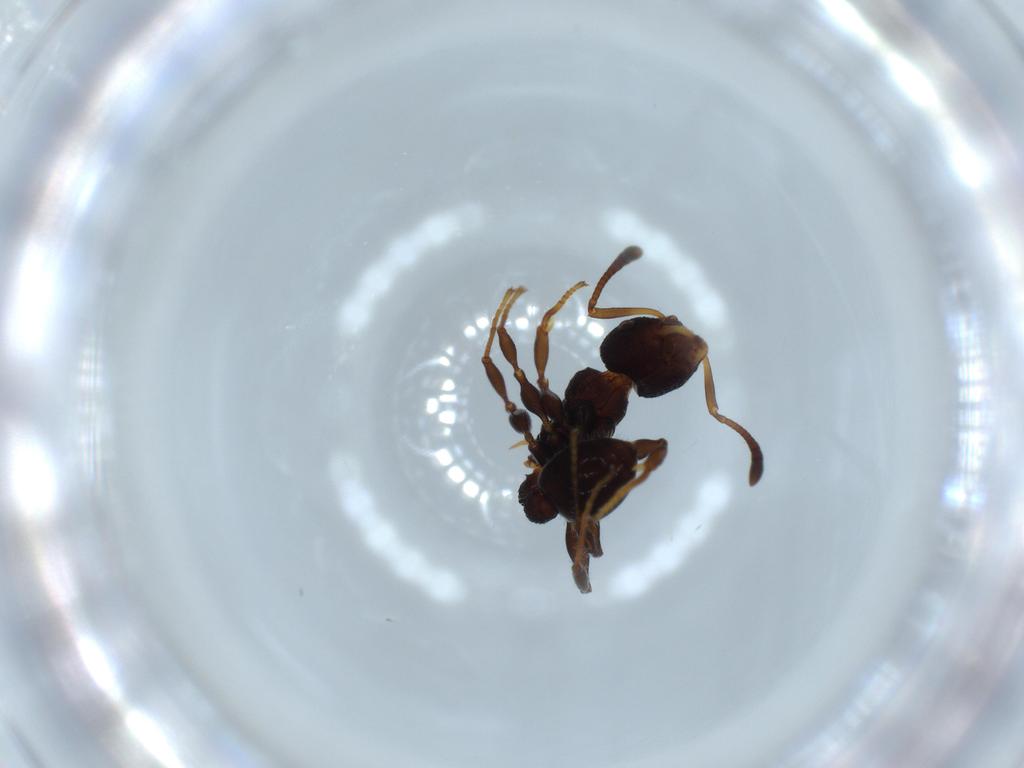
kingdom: Animalia
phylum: Arthropoda
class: Insecta
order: Hymenoptera
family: Formicidae
